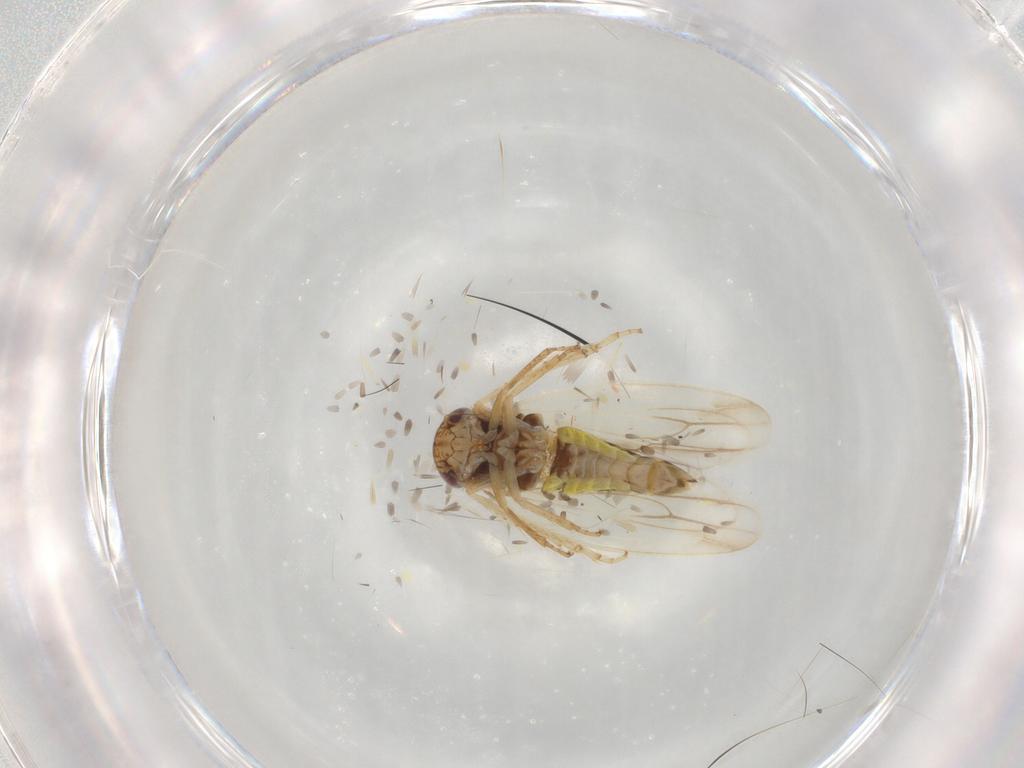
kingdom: Animalia
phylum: Arthropoda
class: Insecta
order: Hemiptera
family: Cicadellidae
